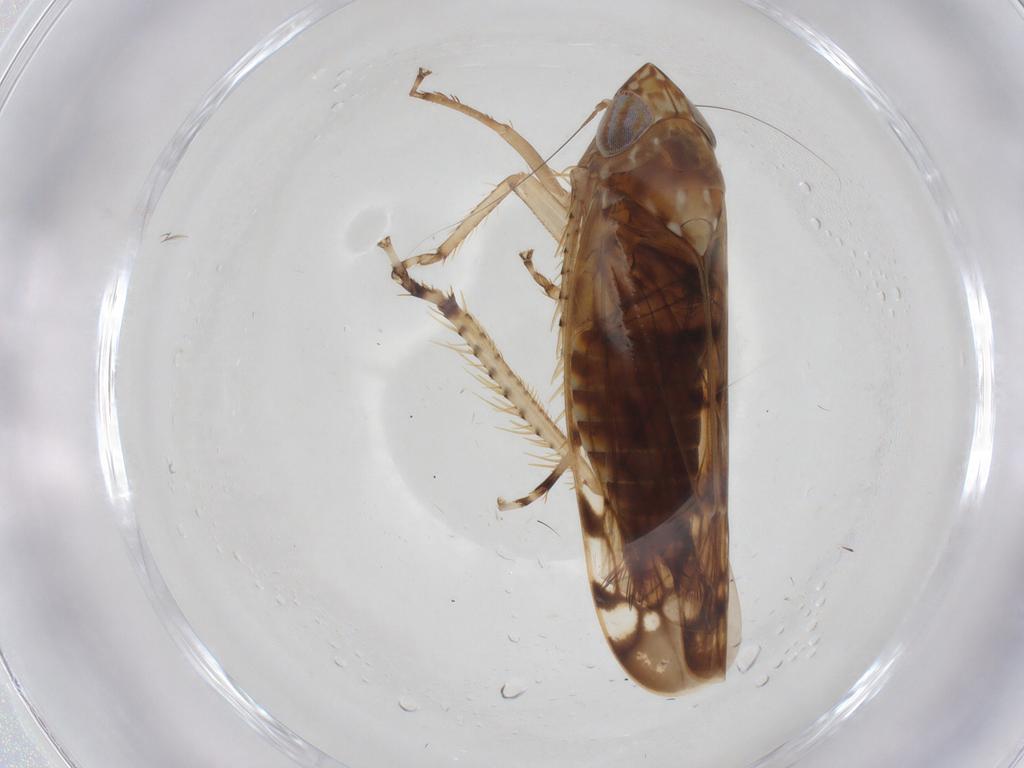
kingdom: Animalia
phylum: Arthropoda
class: Insecta
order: Hemiptera
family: Cicadellidae
